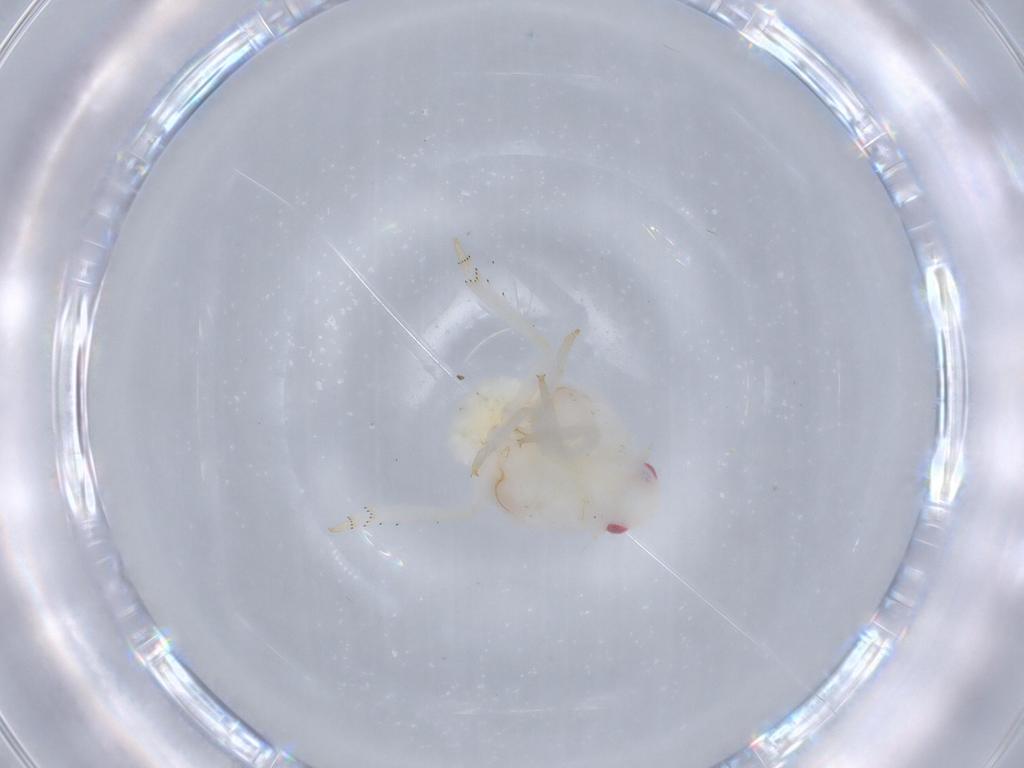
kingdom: Animalia
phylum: Arthropoda
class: Insecta
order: Hemiptera
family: Flatidae
